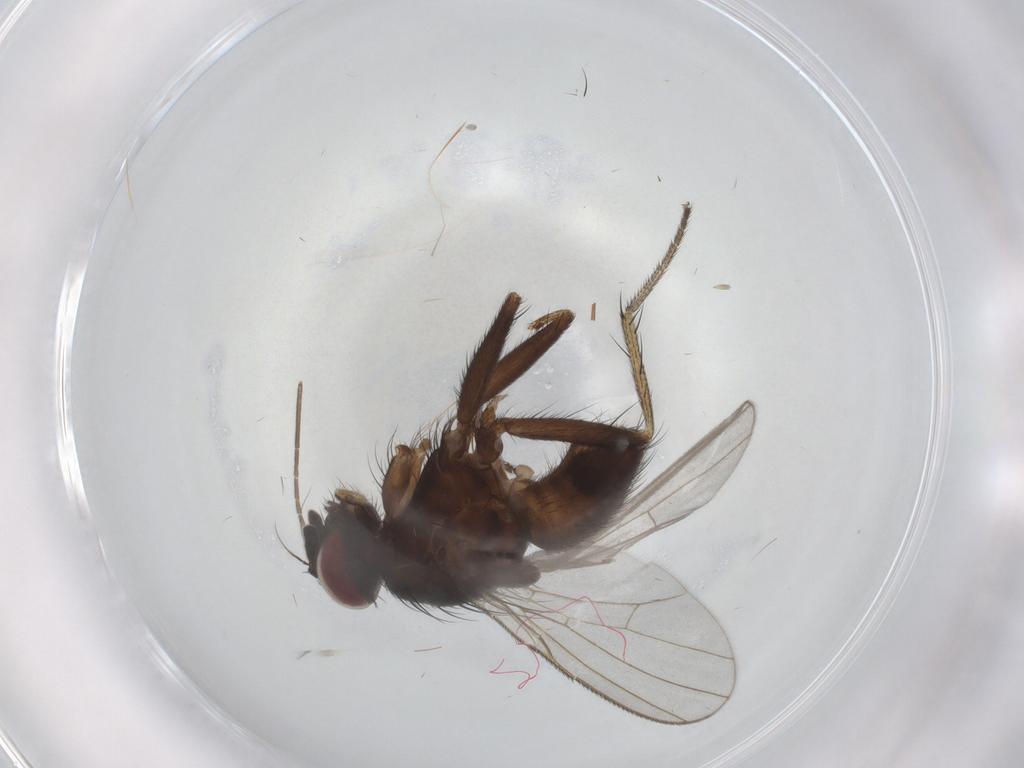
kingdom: Animalia
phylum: Arthropoda
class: Insecta
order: Diptera
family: Muscidae
